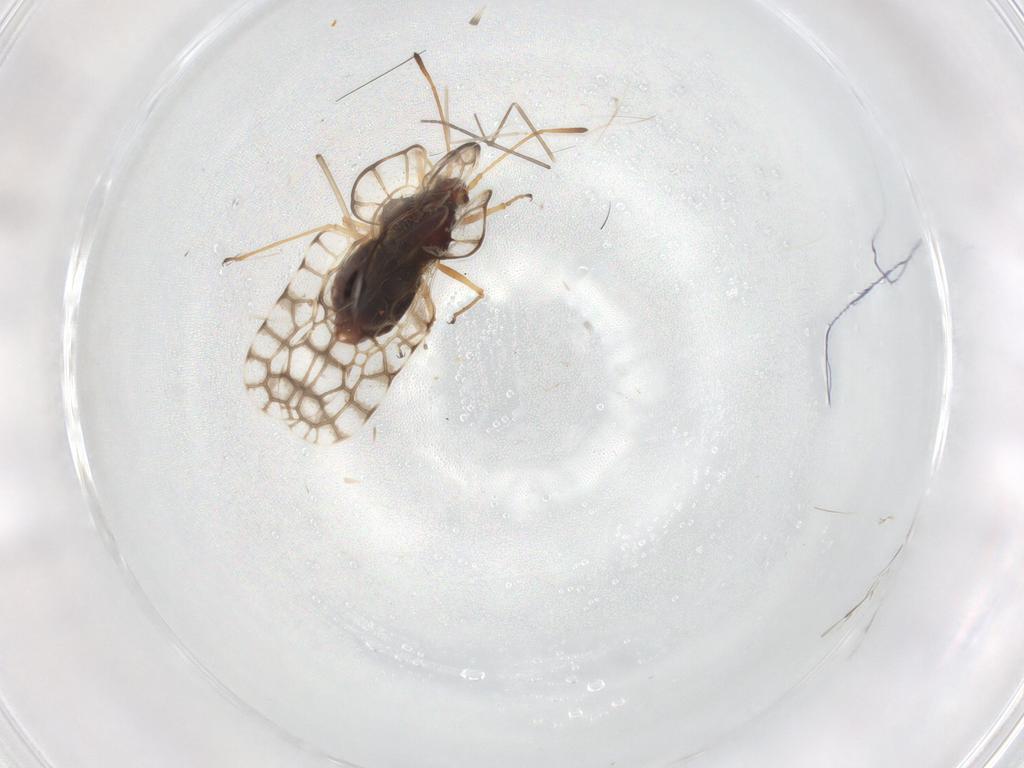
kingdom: Animalia
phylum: Arthropoda
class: Insecta
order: Hemiptera
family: Tingidae
